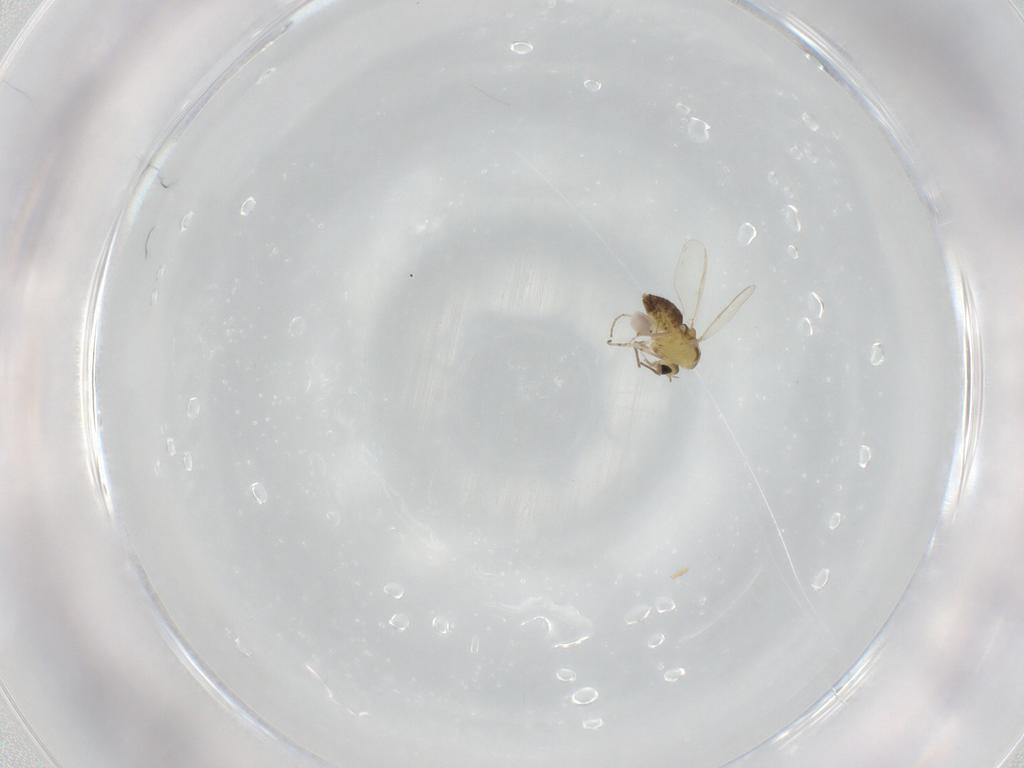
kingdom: Animalia
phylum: Arthropoda
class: Insecta
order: Diptera
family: Chironomidae
